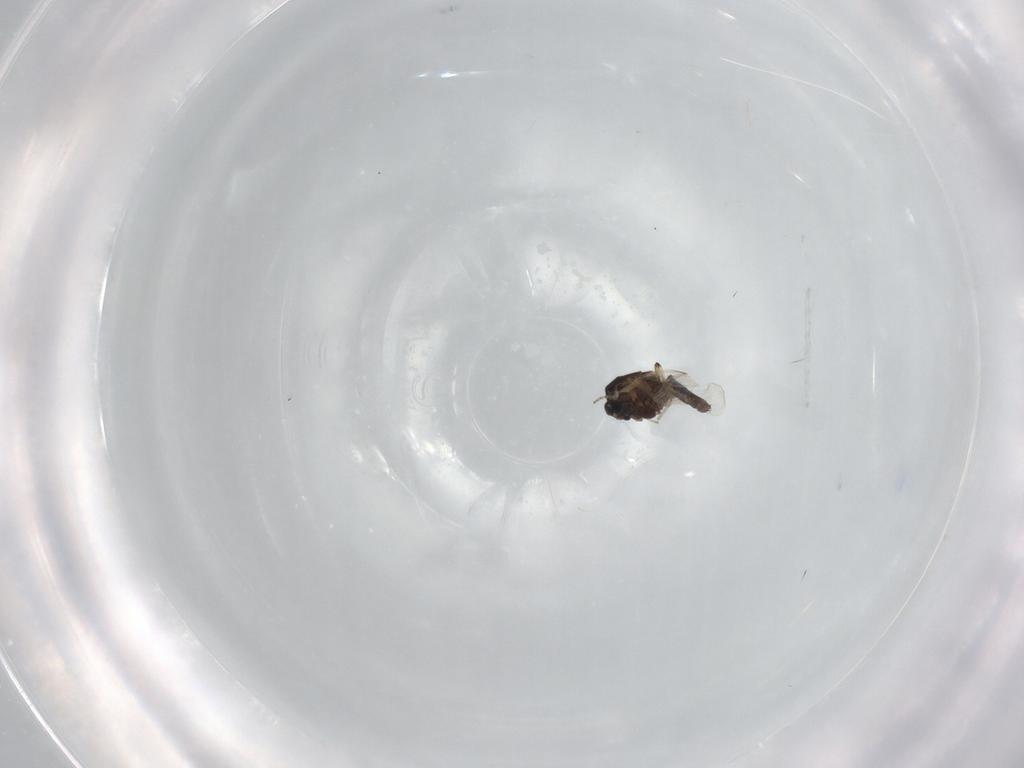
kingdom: Animalia
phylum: Arthropoda
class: Insecta
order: Diptera
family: Ceratopogonidae
